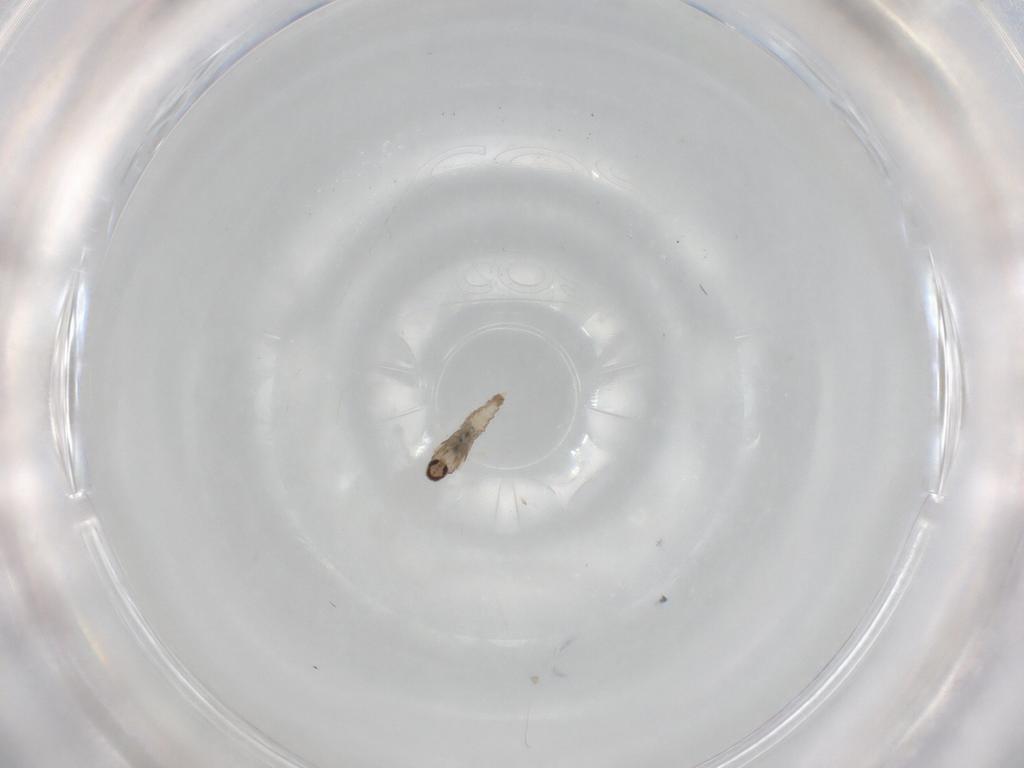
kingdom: Animalia
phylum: Arthropoda
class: Insecta
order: Diptera
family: Cecidomyiidae
